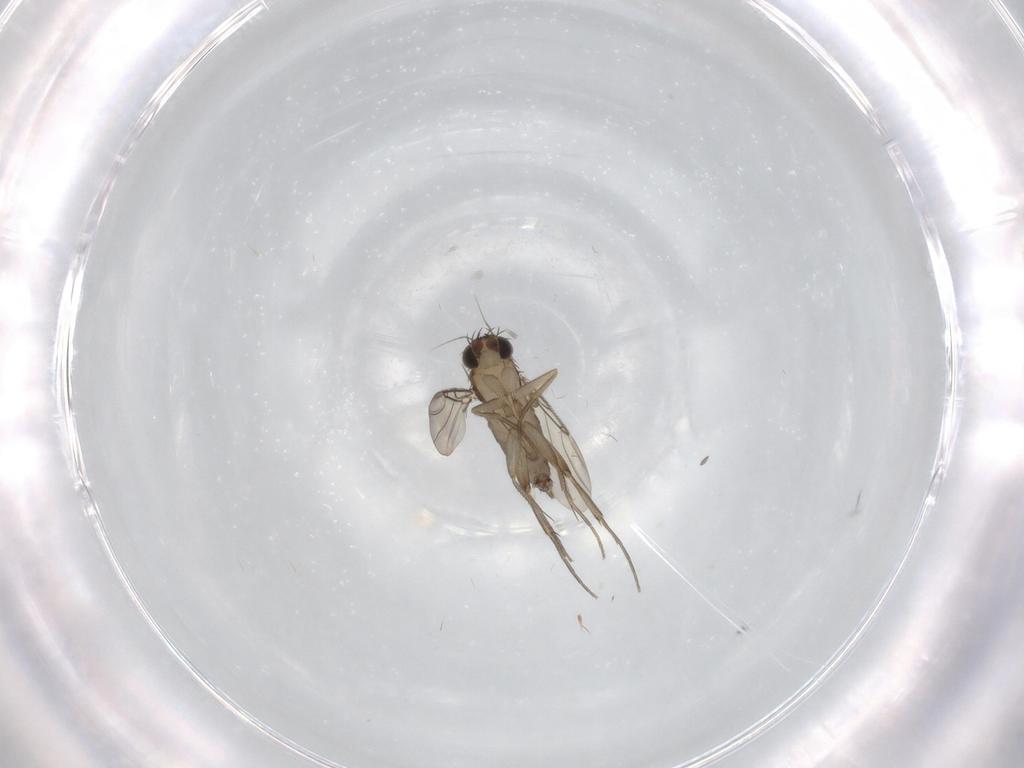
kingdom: Animalia
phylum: Arthropoda
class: Insecta
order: Diptera
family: Phoridae
